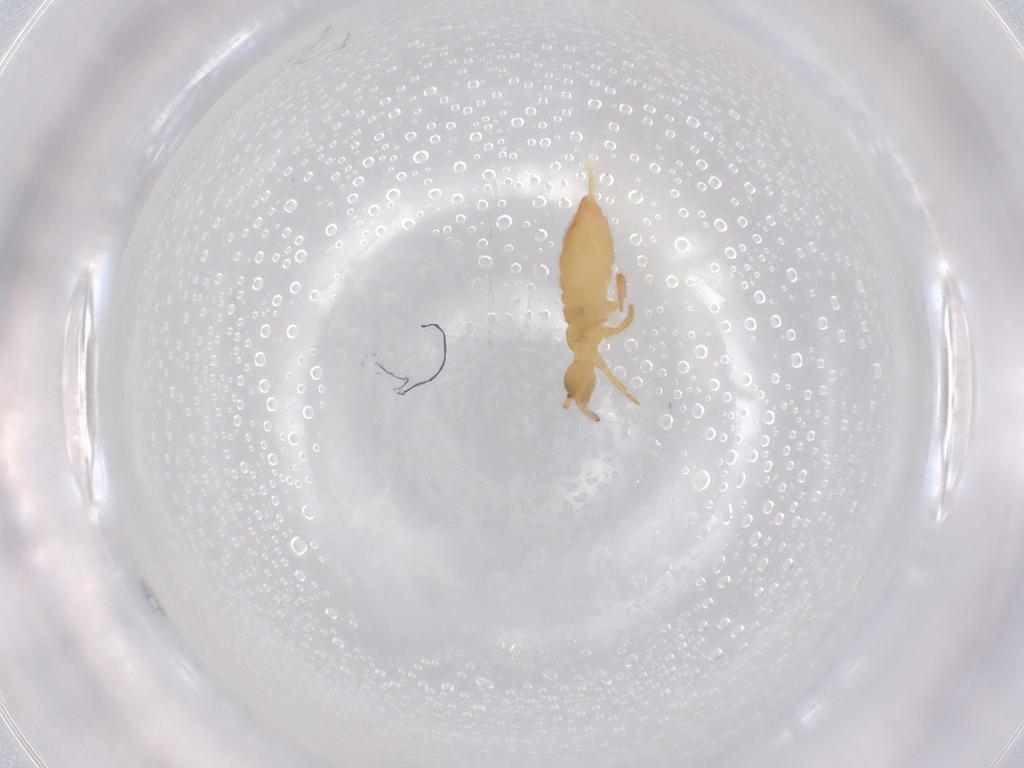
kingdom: Animalia
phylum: Arthropoda
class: Collembola
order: Entomobryomorpha
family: Entomobryidae
